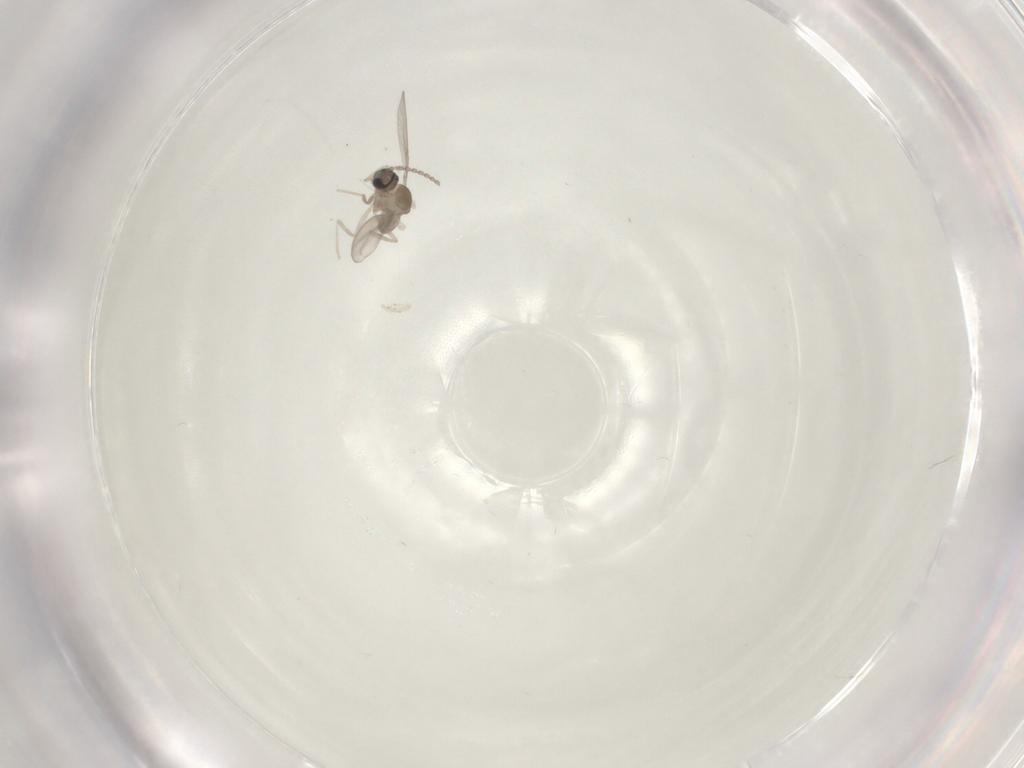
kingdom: Animalia
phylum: Arthropoda
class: Insecta
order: Diptera
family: Cecidomyiidae
